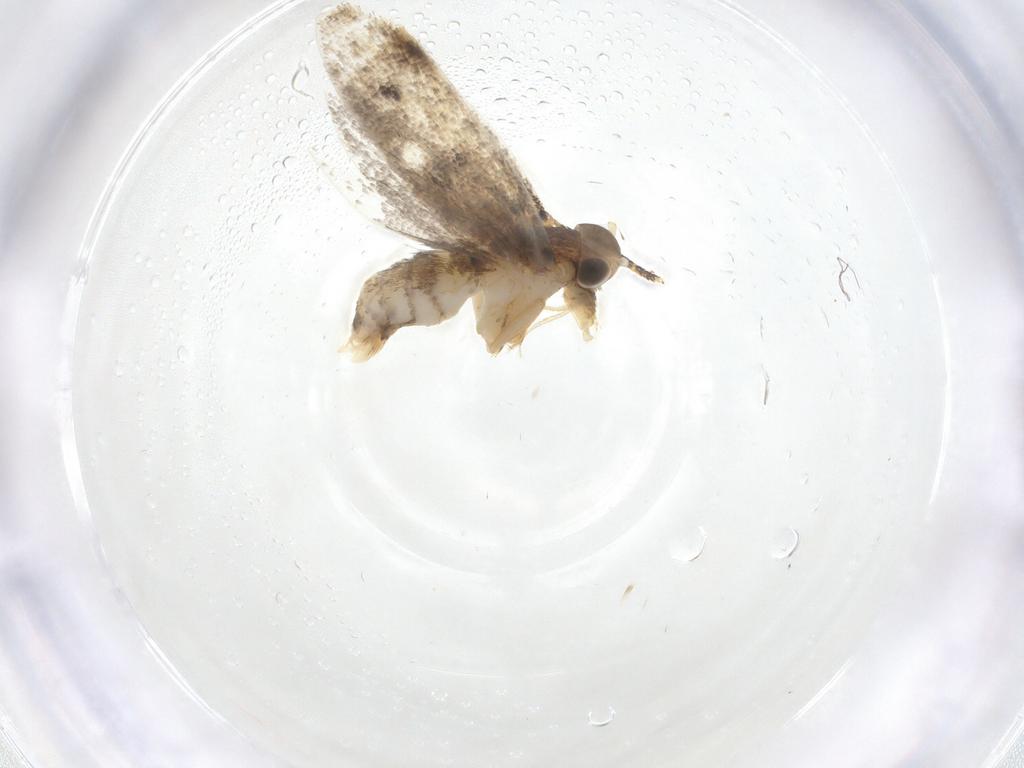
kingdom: Animalia
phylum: Arthropoda
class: Insecta
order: Lepidoptera
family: Oecophoridae
